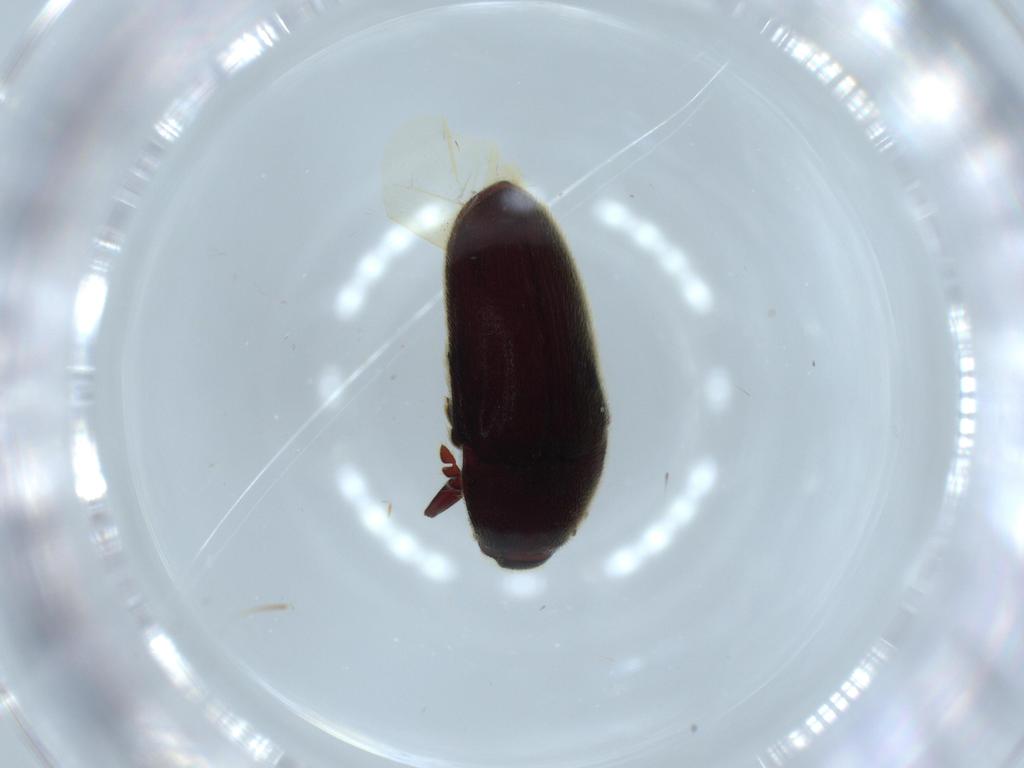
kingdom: Animalia
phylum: Arthropoda
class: Insecta
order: Coleoptera
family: Throscidae
